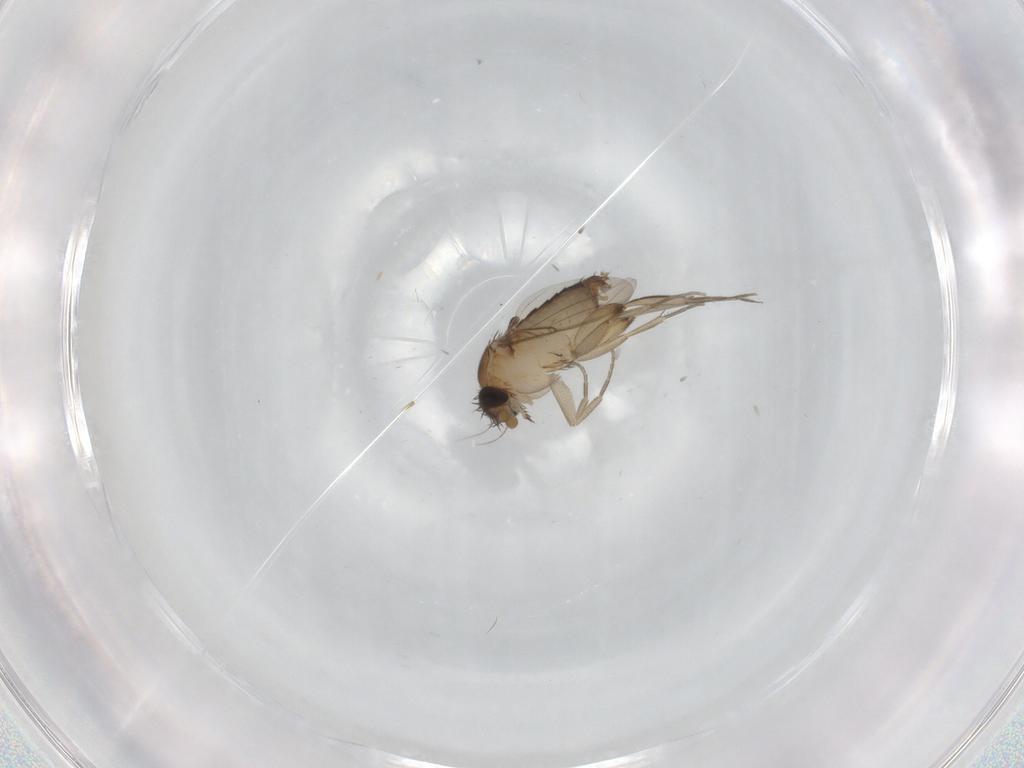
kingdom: Animalia
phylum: Arthropoda
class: Insecta
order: Diptera
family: Phoridae
